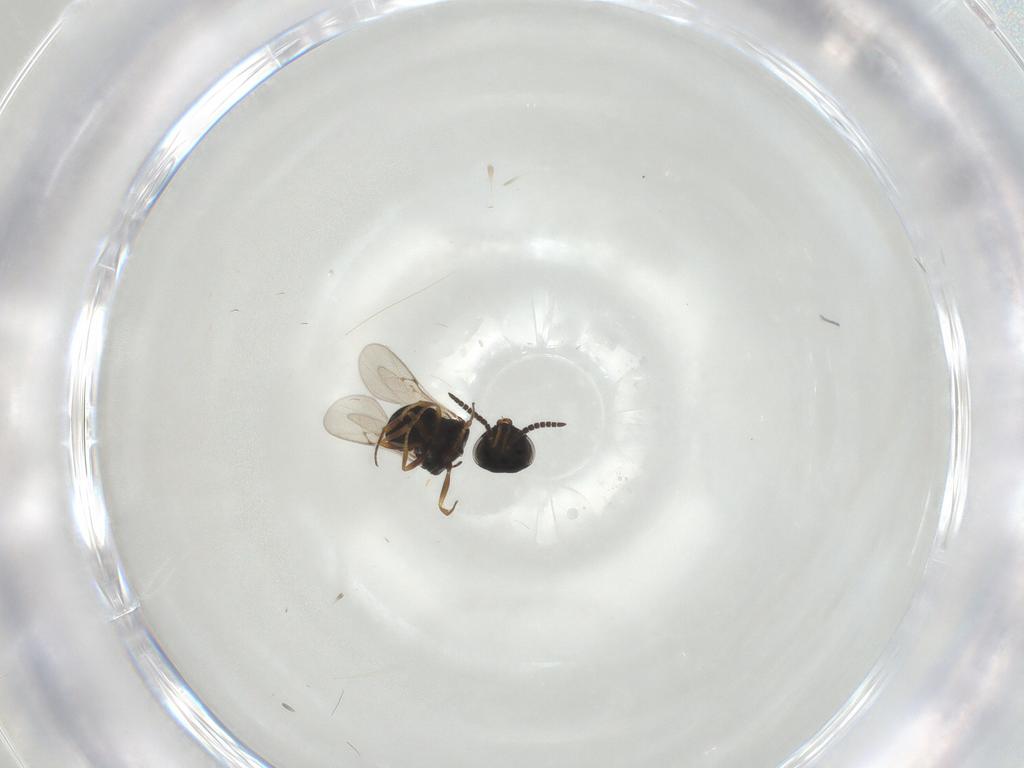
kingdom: Animalia
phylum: Arthropoda
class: Insecta
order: Hymenoptera
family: Scelionidae
